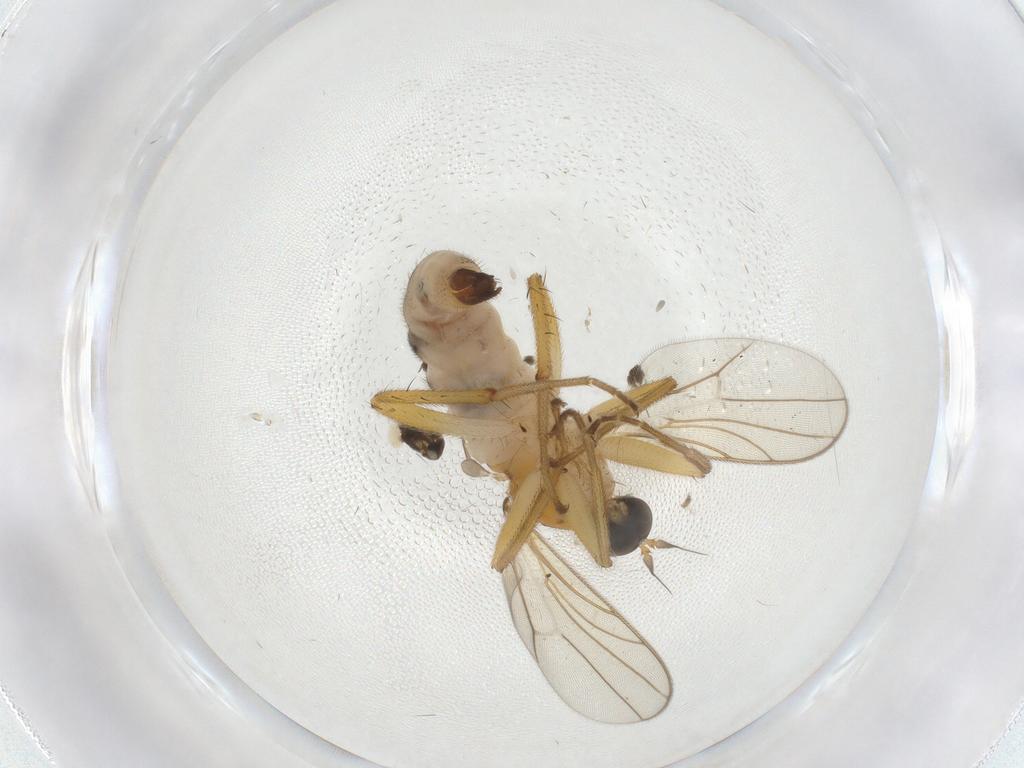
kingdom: Animalia
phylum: Arthropoda
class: Insecta
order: Diptera
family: Hybotidae
